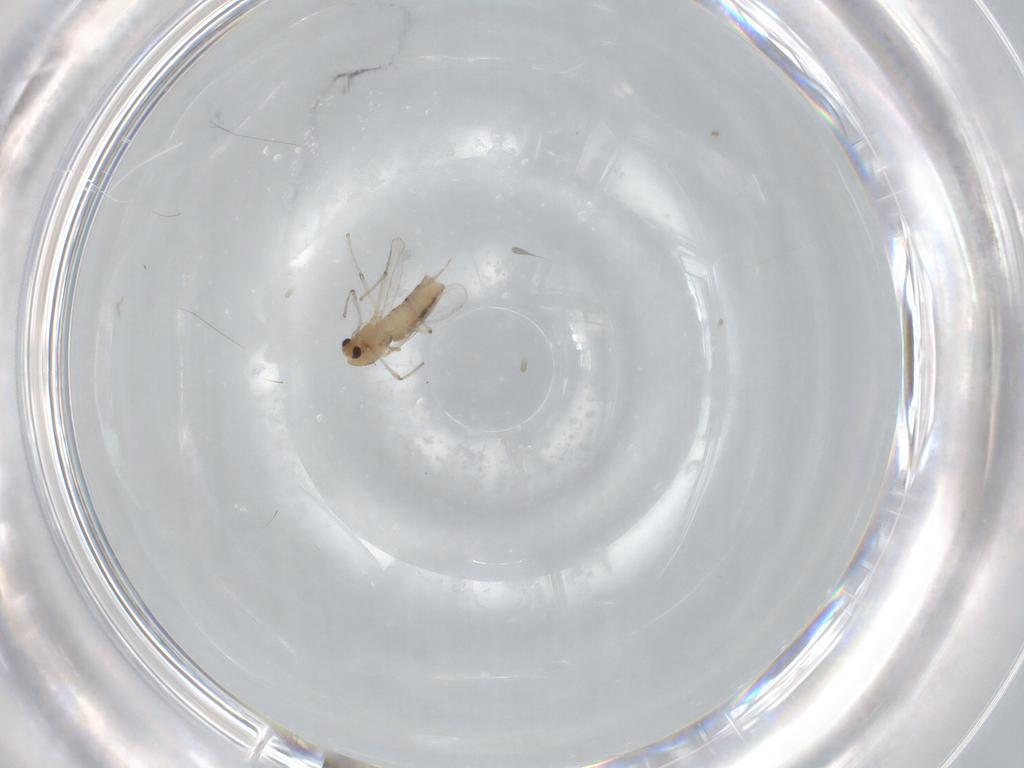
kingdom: Animalia
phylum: Arthropoda
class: Insecta
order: Diptera
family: Chironomidae
